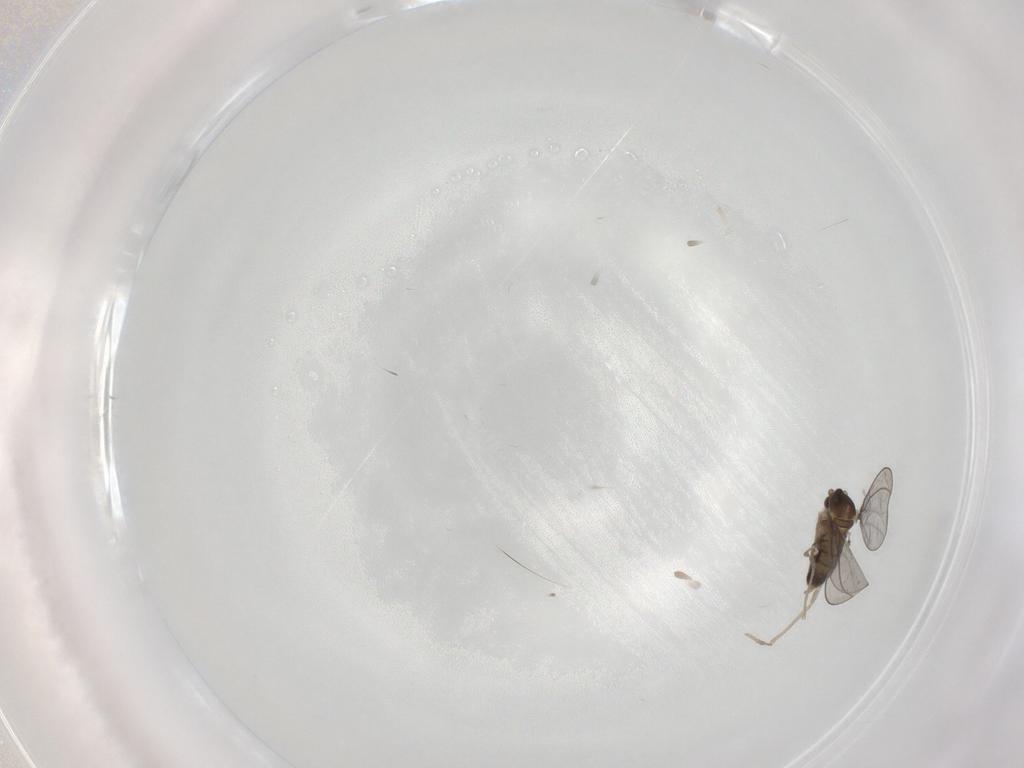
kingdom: Animalia
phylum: Arthropoda
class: Insecta
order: Diptera
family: Cecidomyiidae
